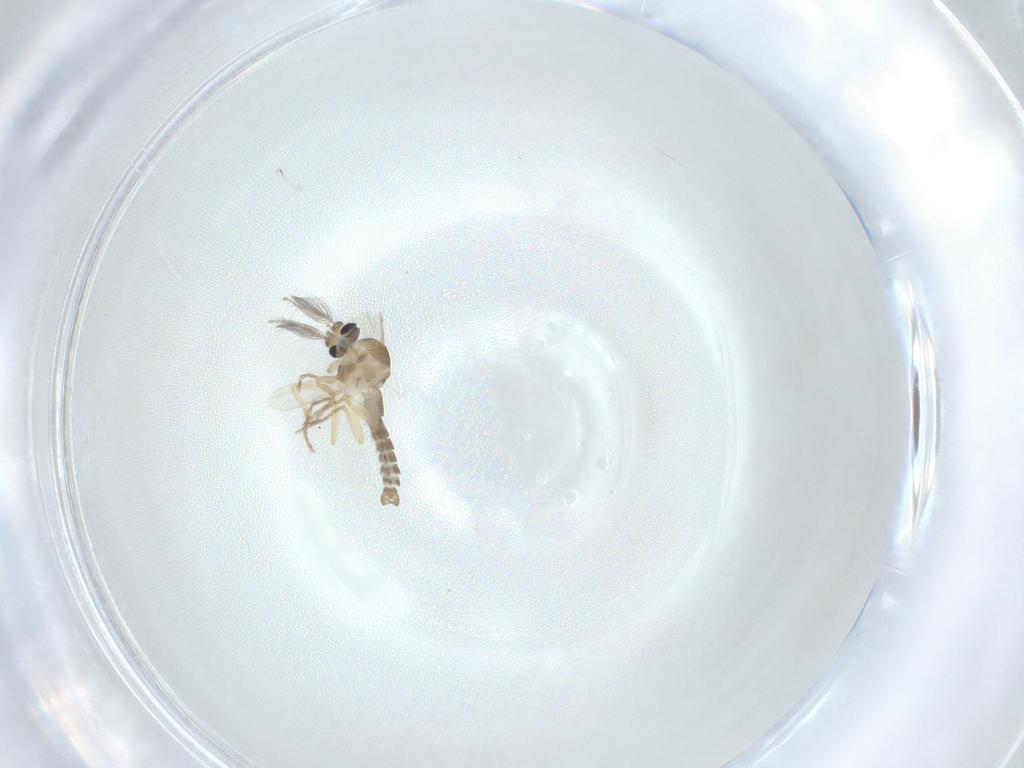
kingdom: Animalia
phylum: Arthropoda
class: Insecta
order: Diptera
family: Ceratopogonidae
